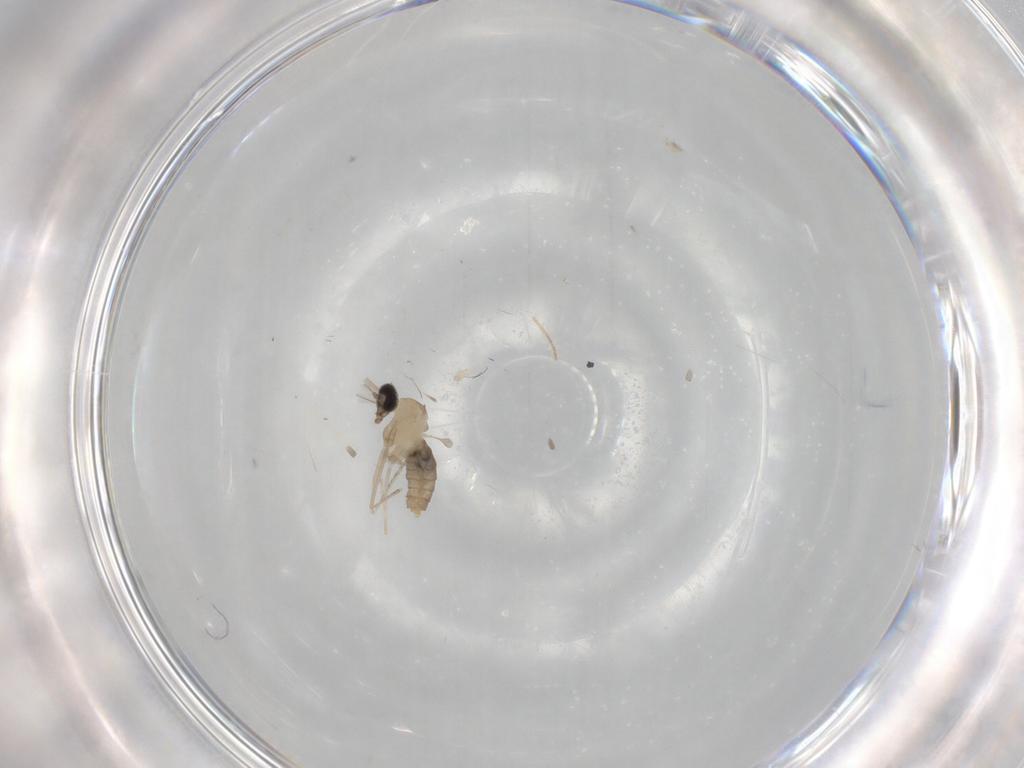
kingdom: Animalia
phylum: Arthropoda
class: Insecta
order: Diptera
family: Cecidomyiidae
